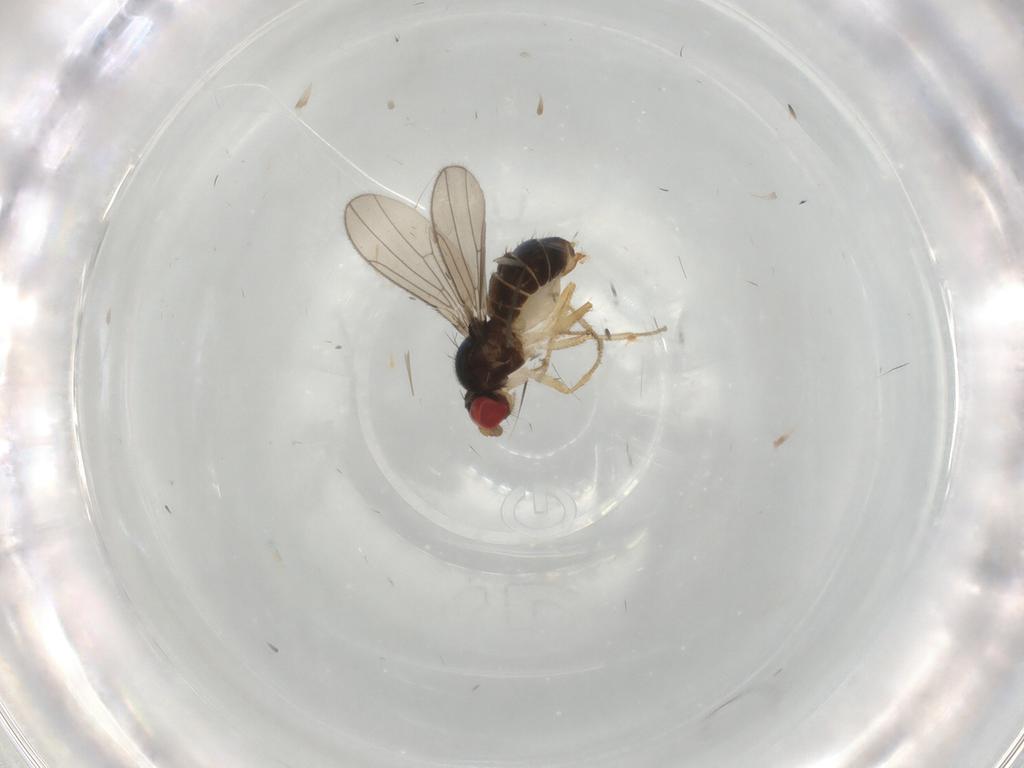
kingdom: Animalia
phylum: Arthropoda
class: Insecta
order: Diptera
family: Drosophilidae
